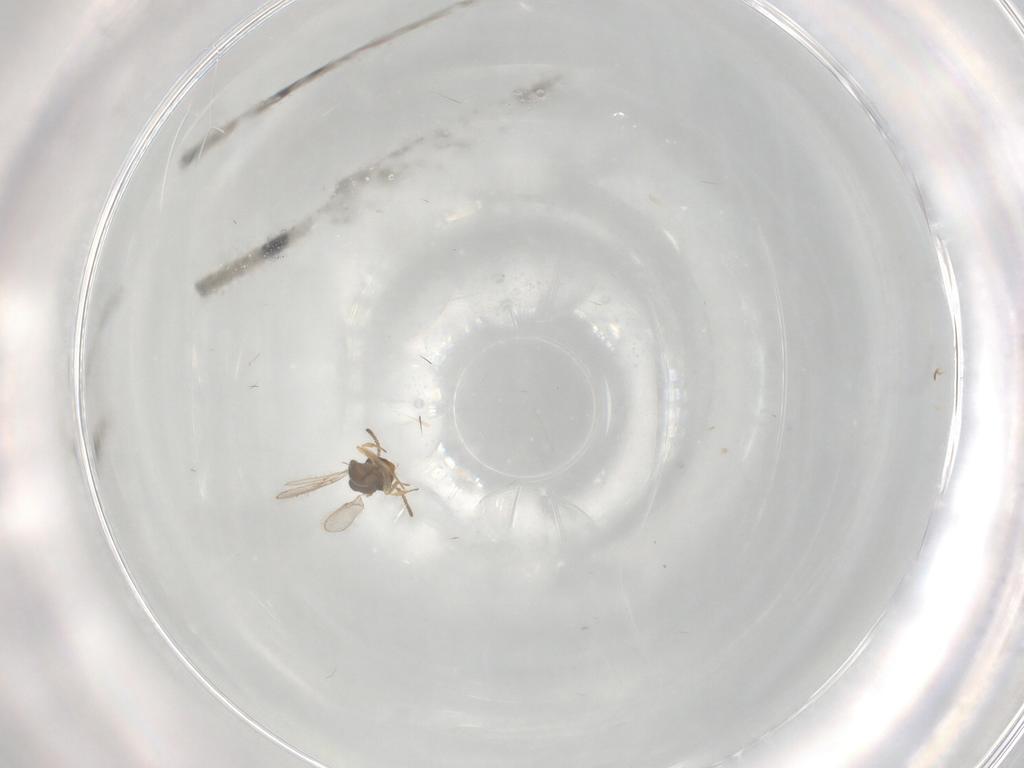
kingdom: Animalia
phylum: Arthropoda
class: Insecta
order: Hymenoptera
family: Scelionidae
